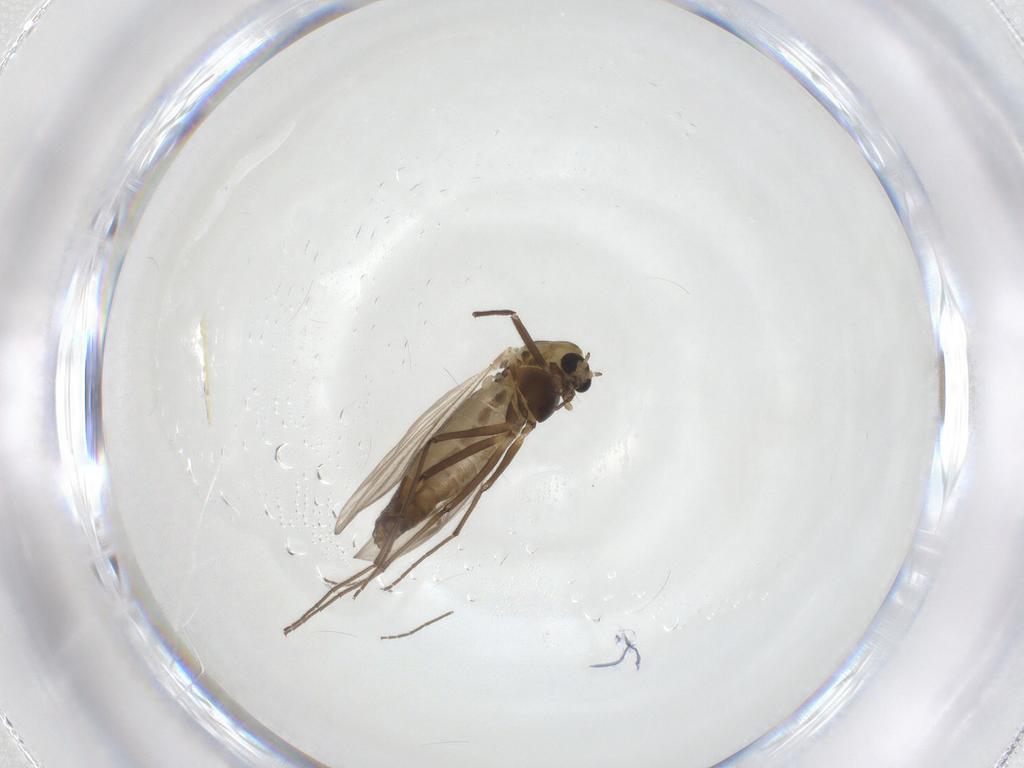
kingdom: Animalia
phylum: Arthropoda
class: Insecta
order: Diptera
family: Chironomidae
